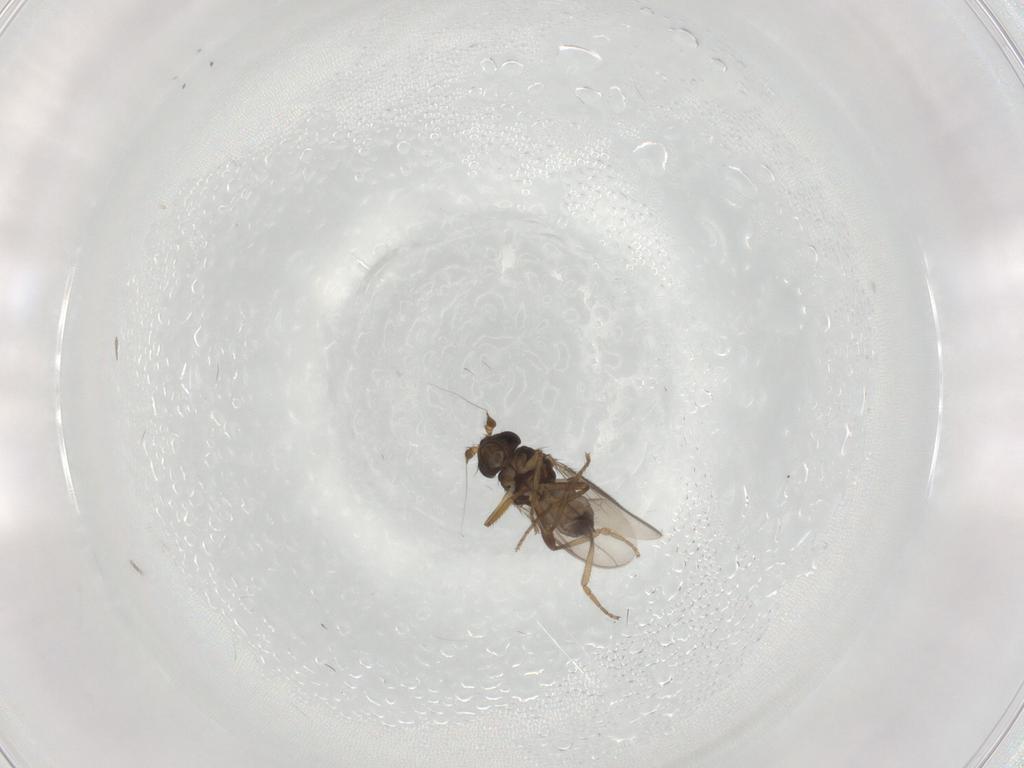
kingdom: Animalia
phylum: Arthropoda
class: Insecta
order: Diptera
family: Sphaeroceridae
